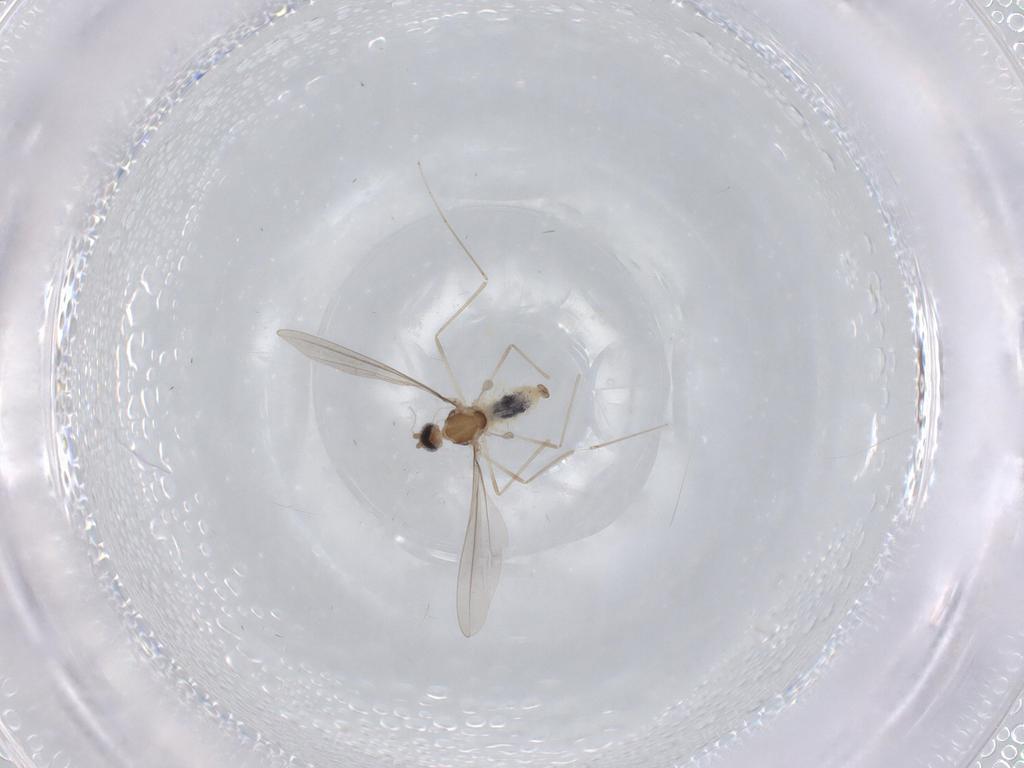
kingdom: Animalia
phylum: Arthropoda
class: Insecta
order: Diptera
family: Cecidomyiidae
